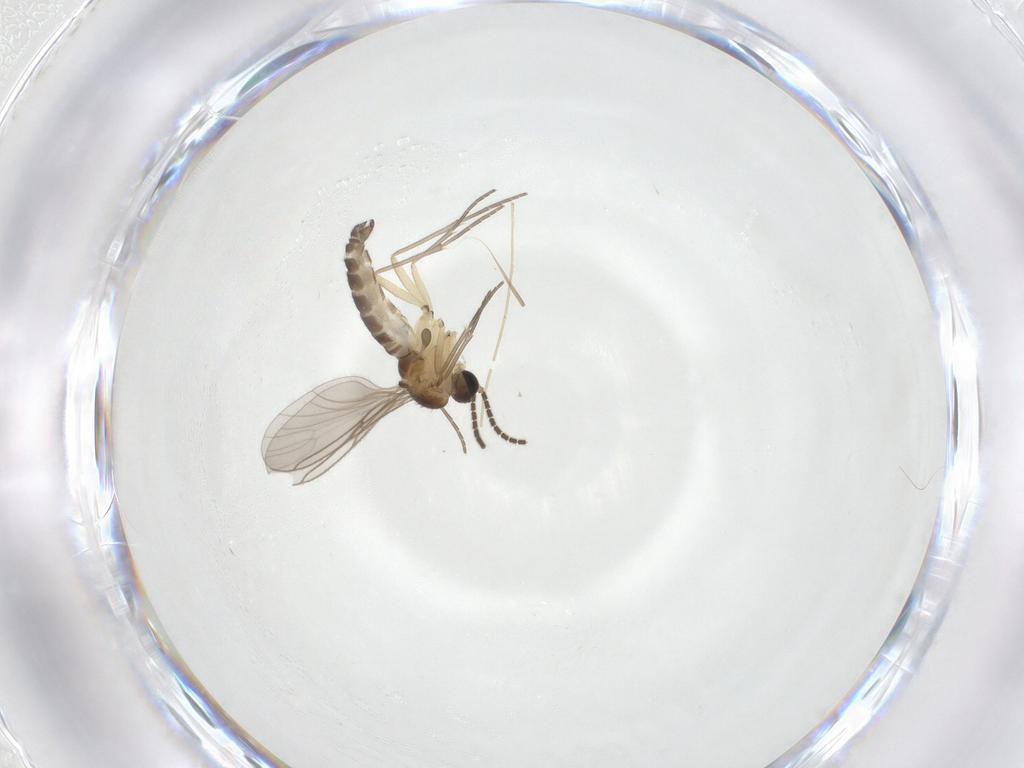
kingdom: Animalia
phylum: Arthropoda
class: Insecta
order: Diptera
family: Sciaridae
